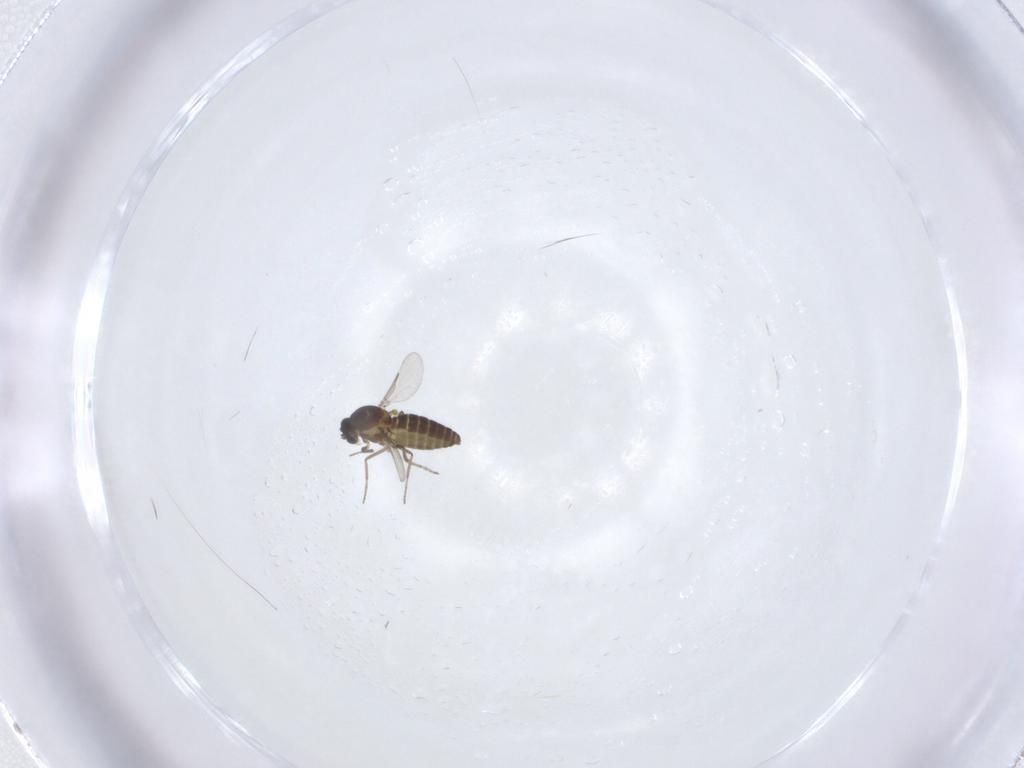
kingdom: Animalia
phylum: Arthropoda
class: Insecta
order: Diptera
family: Ceratopogonidae
